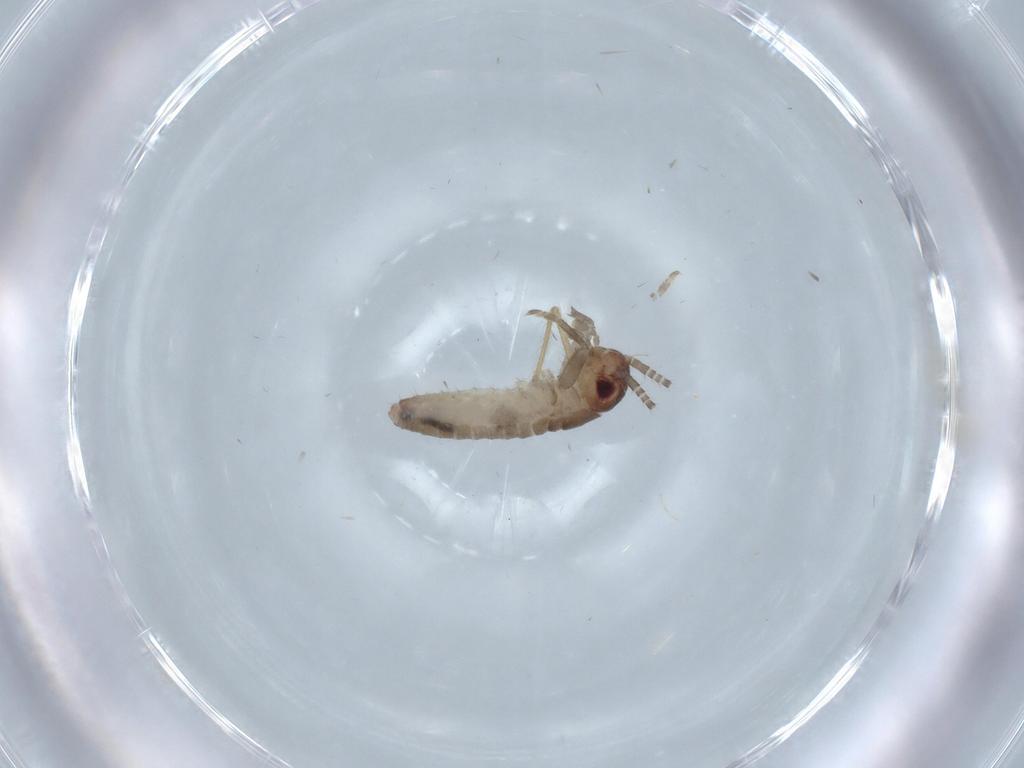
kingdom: Animalia
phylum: Arthropoda
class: Insecta
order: Orthoptera
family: Mogoplistidae
